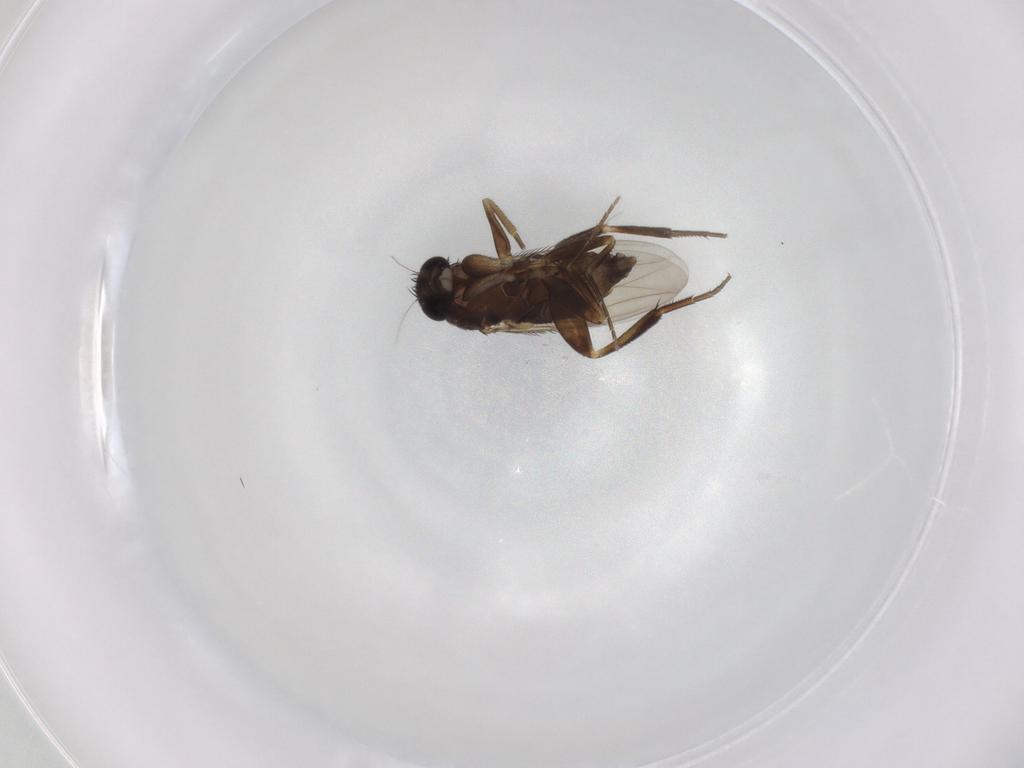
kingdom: Animalia
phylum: Arthropoda
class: Insecta
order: Diptera
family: Phoridae
